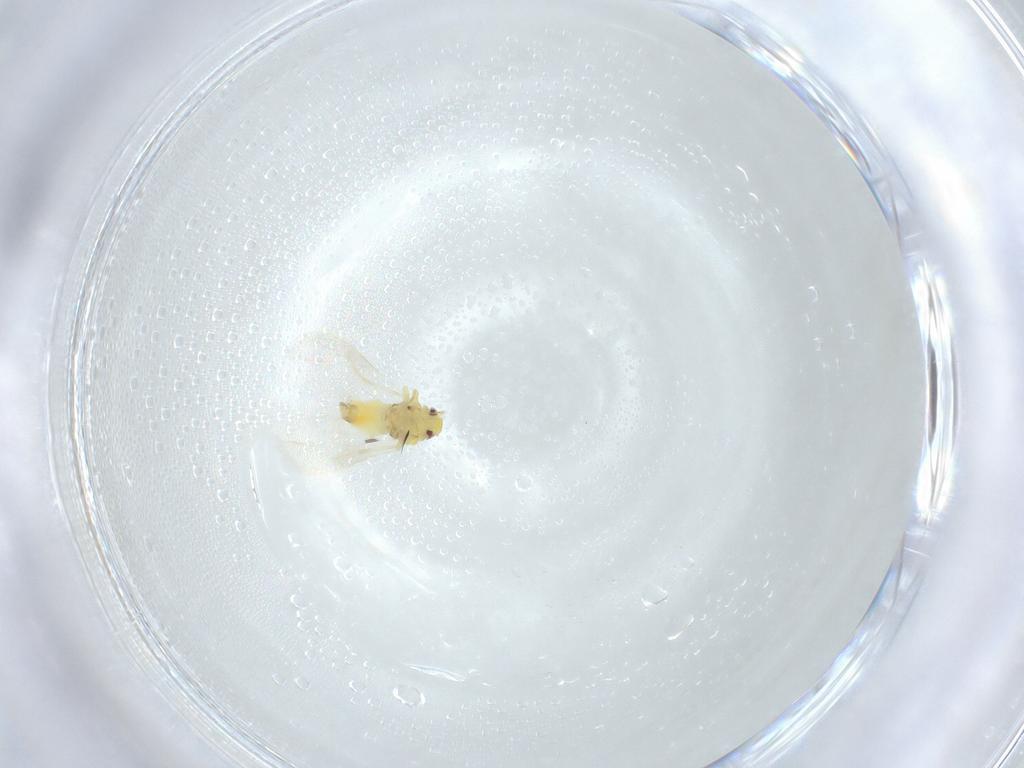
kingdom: Animalia
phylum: Arthropoda
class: Insecta
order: Hemiptera
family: Aleyrodidae
